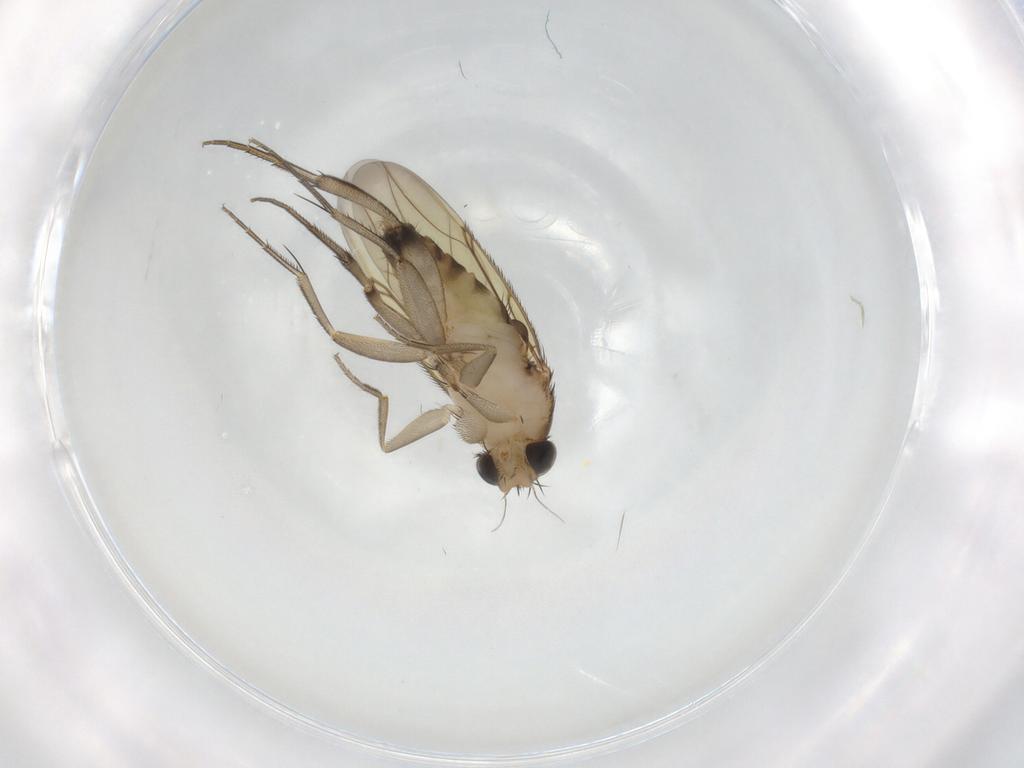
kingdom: Animalia
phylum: Arthropoda
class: Insecta
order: Diptera
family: Phoridae
